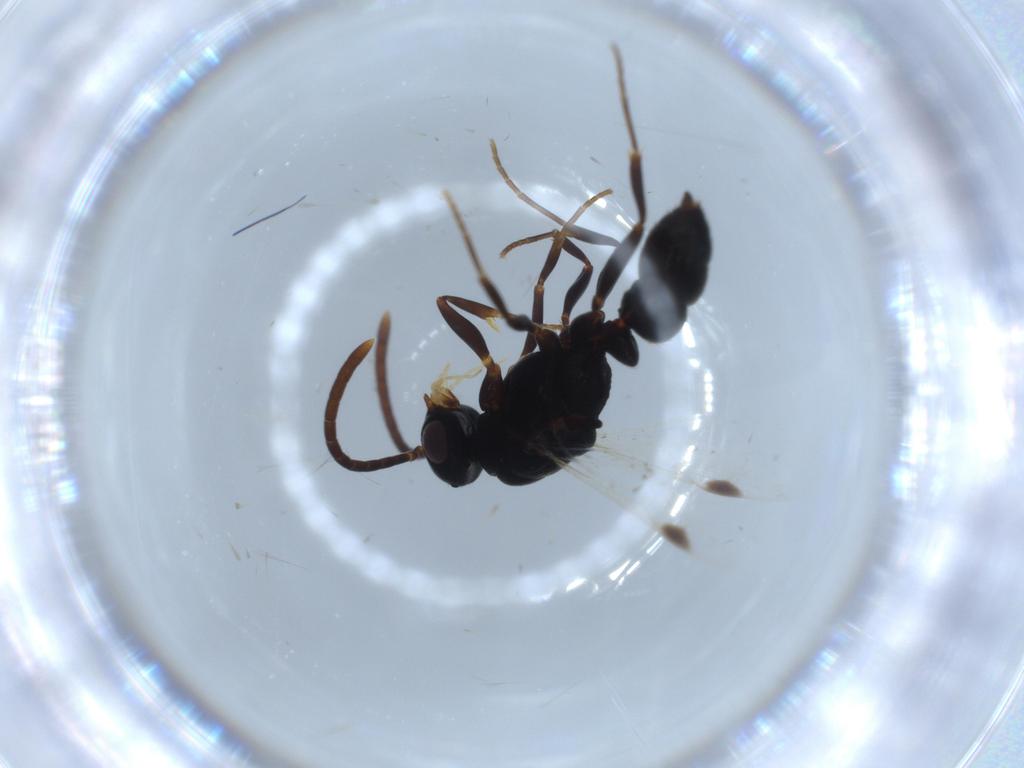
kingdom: Animalia
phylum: Arthropoda
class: Insecta
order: Hymenoptera
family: Formicidae
